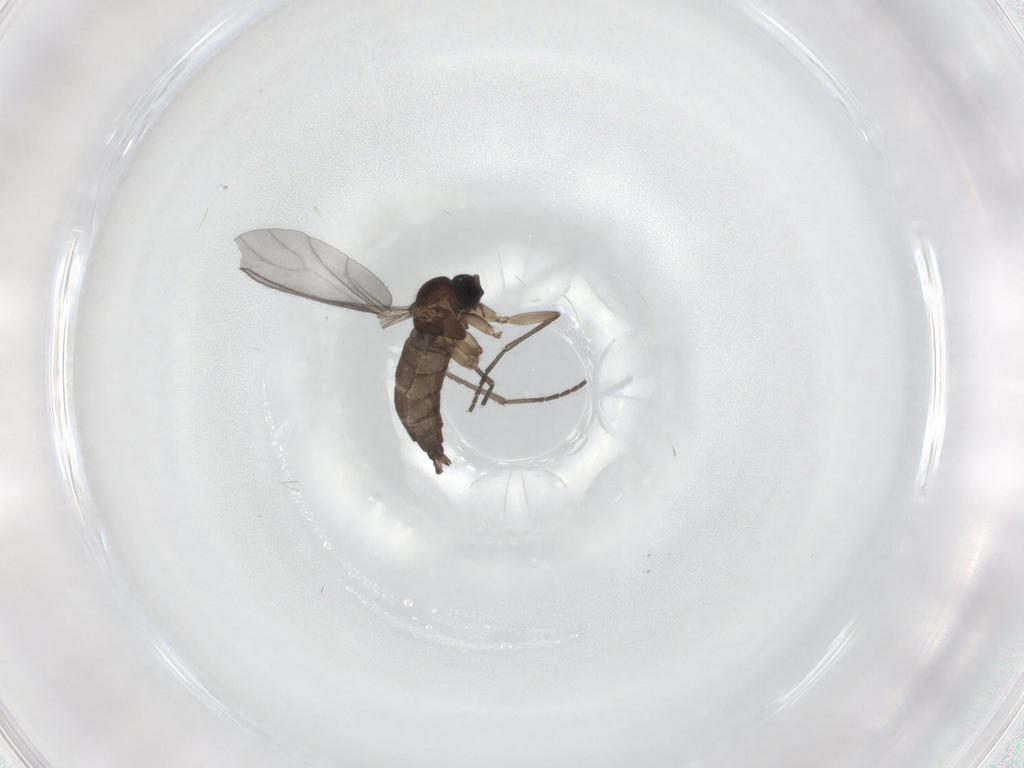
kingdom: Animalia
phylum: Arthropoda
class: Insecta
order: Diptera
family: Sciaridae
